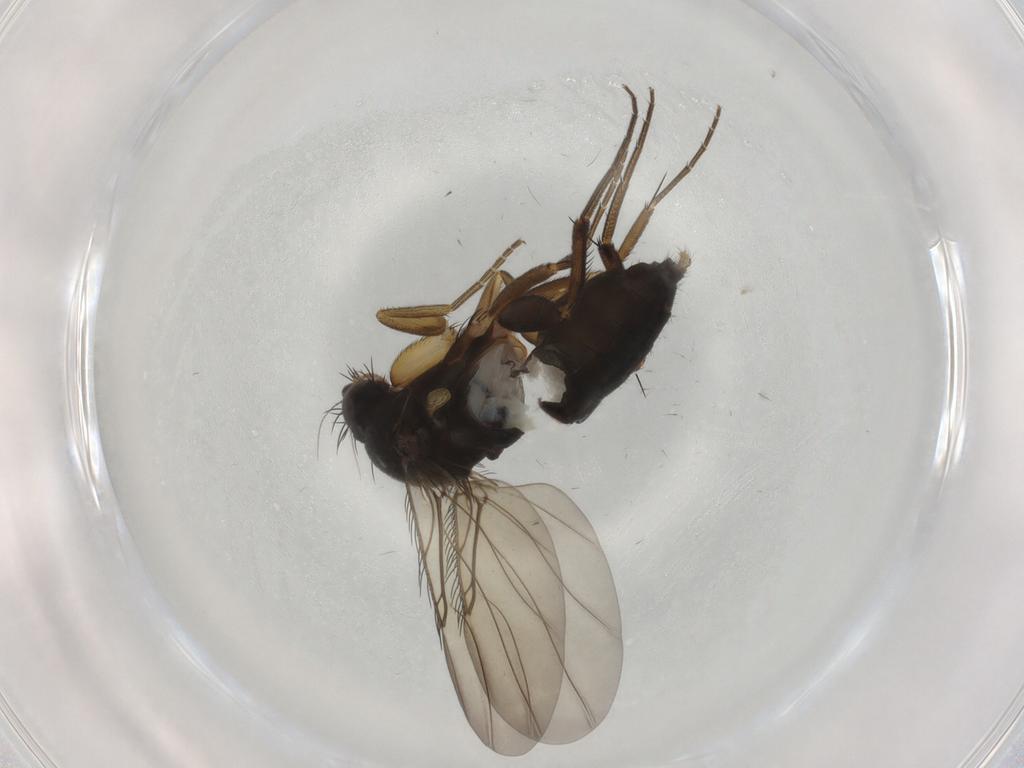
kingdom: Animalia
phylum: Arthropoda
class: Insecta
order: Diptera
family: Phoridae
